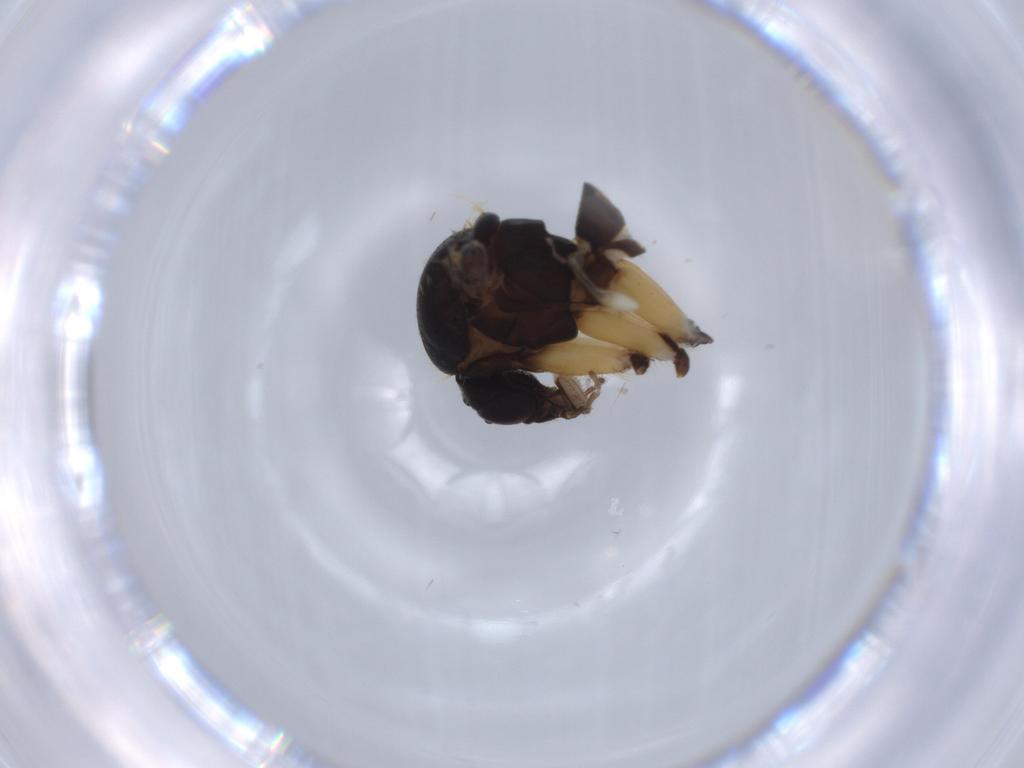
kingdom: Animalia
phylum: Arthropoda
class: Insecta
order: Diptera
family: Mycetophilidae
